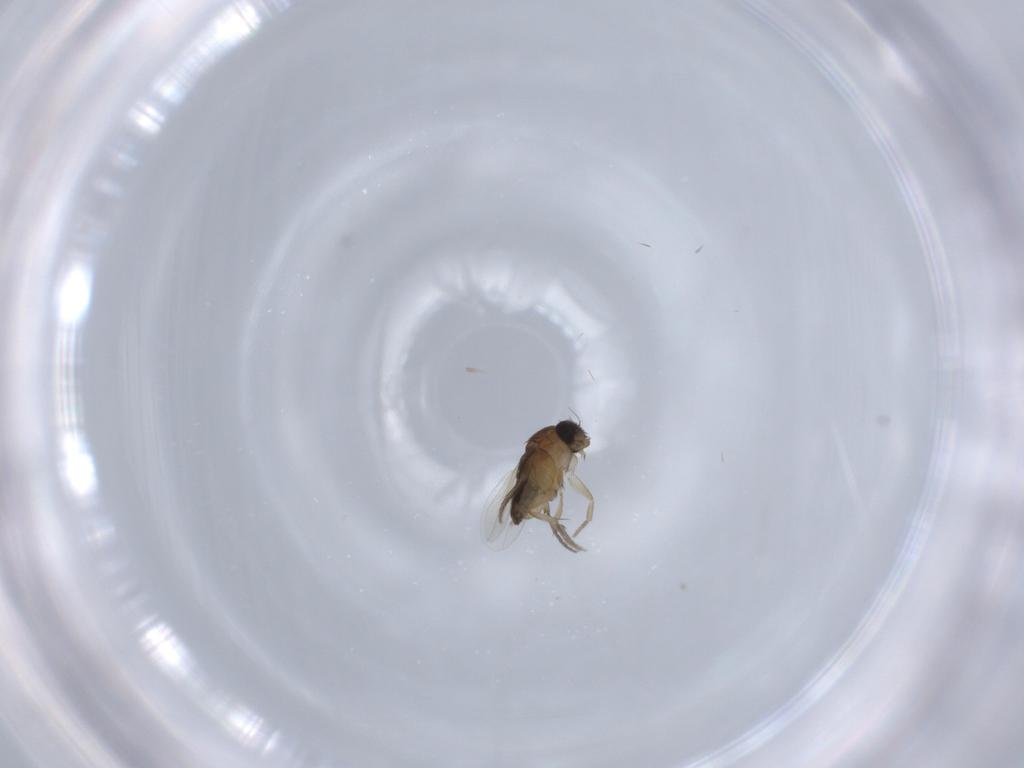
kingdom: Animalia
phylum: Arthropoda
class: Insecta
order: Diptera
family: Phoridae
